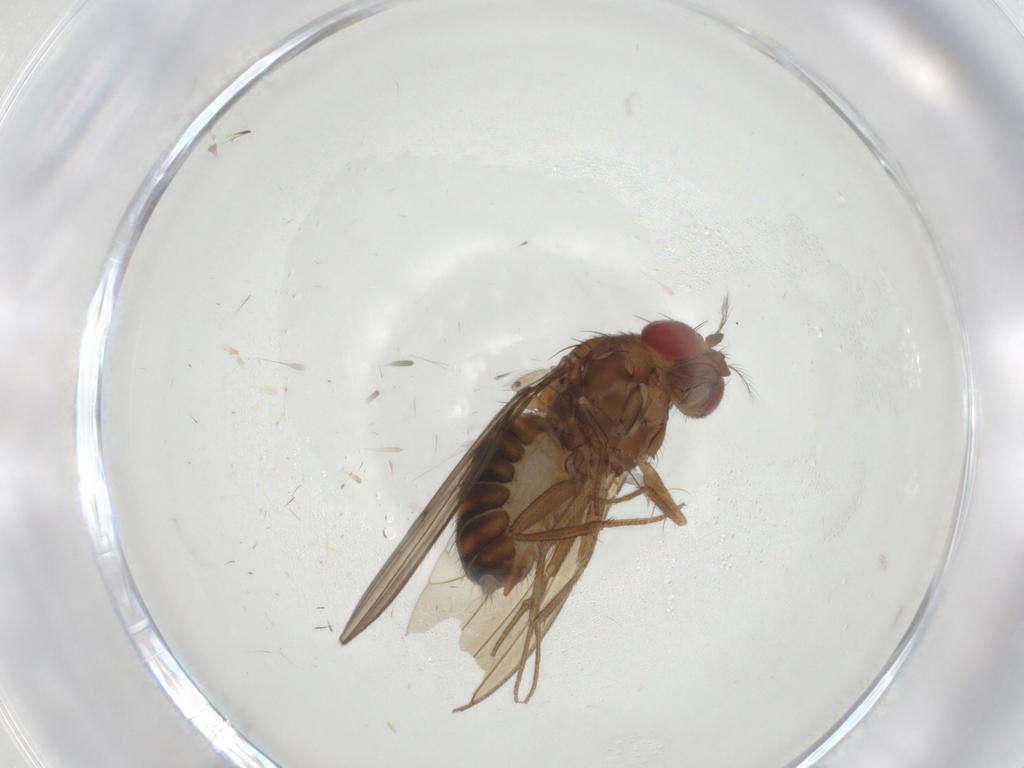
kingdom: Animalia
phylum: Arthropoda
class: Insecta
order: Diptera
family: Drosophilidae
